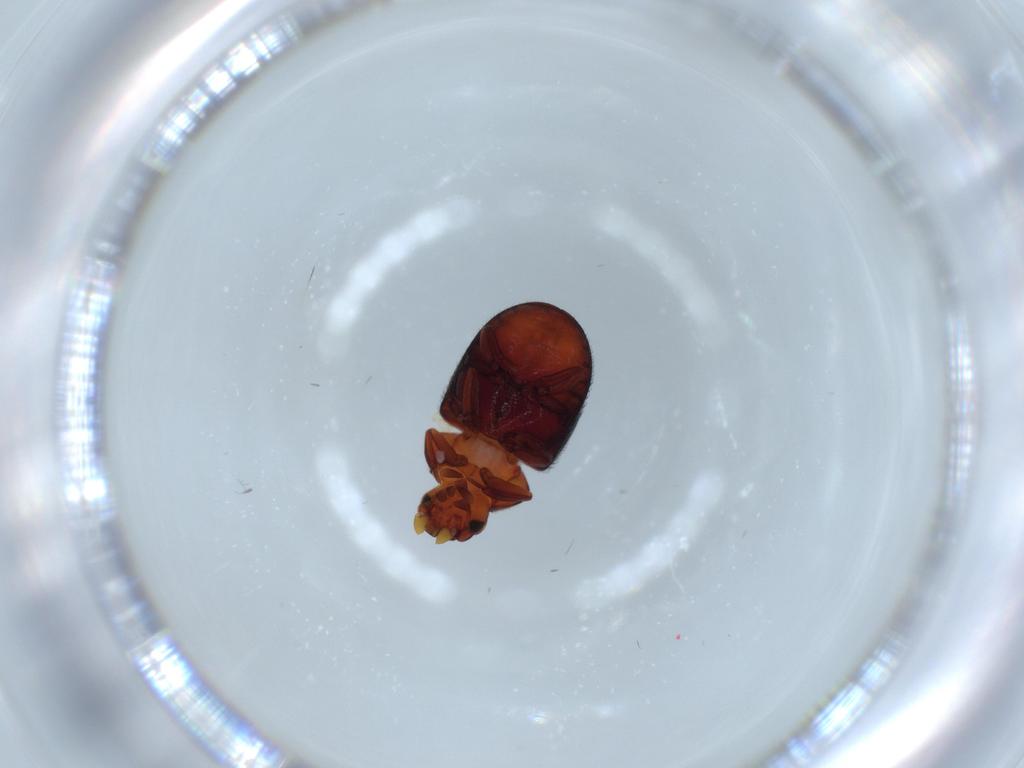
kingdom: Animalia
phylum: Arthropoda
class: Insecta
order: Coleoptera
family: Ptinidae
